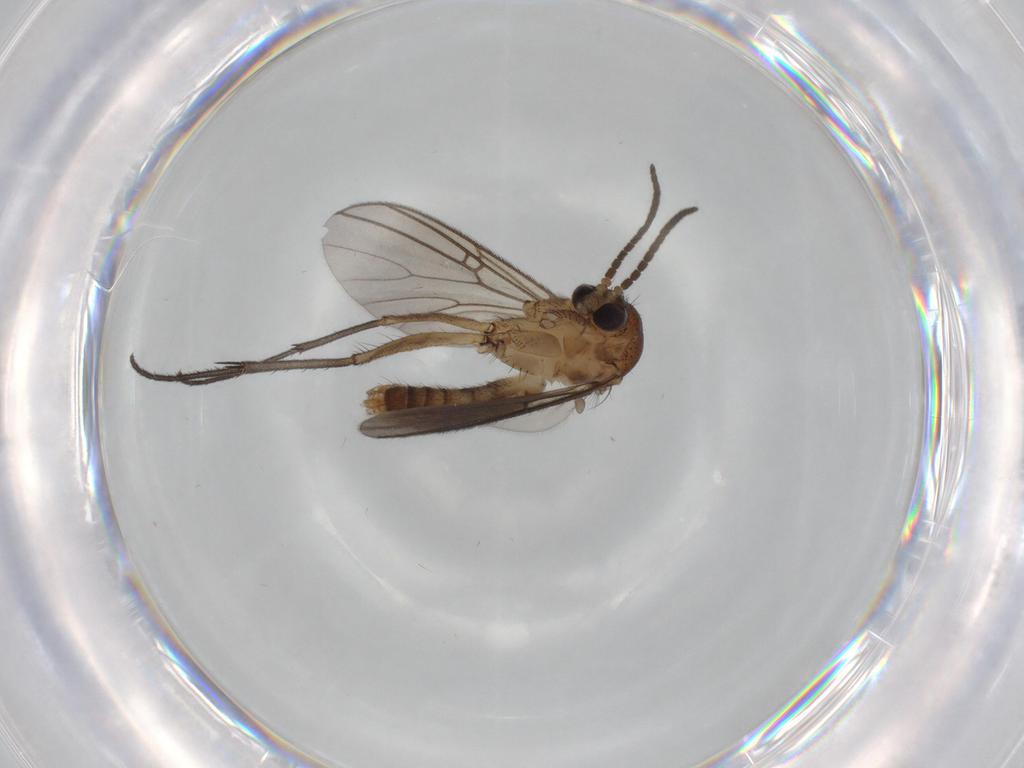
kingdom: Animalia
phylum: Arthropoda
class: Insecta
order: Diptera
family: Mycetophilidae
